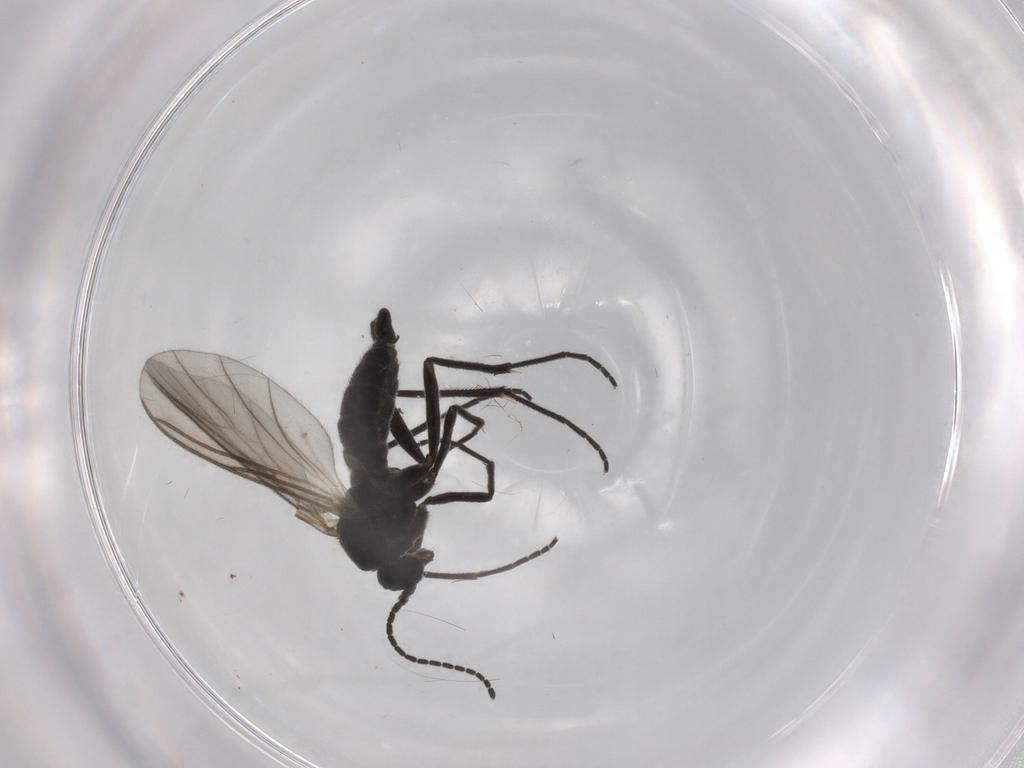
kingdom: Animalia
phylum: Arthropoda
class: Insecta
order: Diptera
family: Sciaridae
